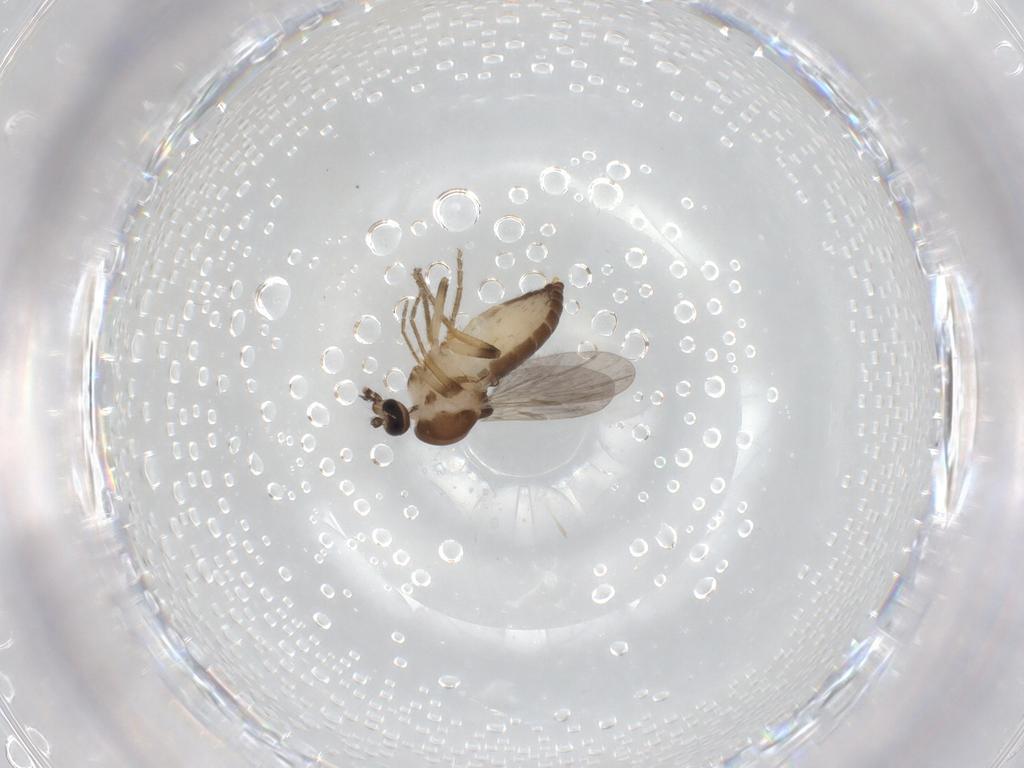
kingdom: Animalia
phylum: Arthropoda
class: Insecta
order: Diptera
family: Ceratopogonidae
